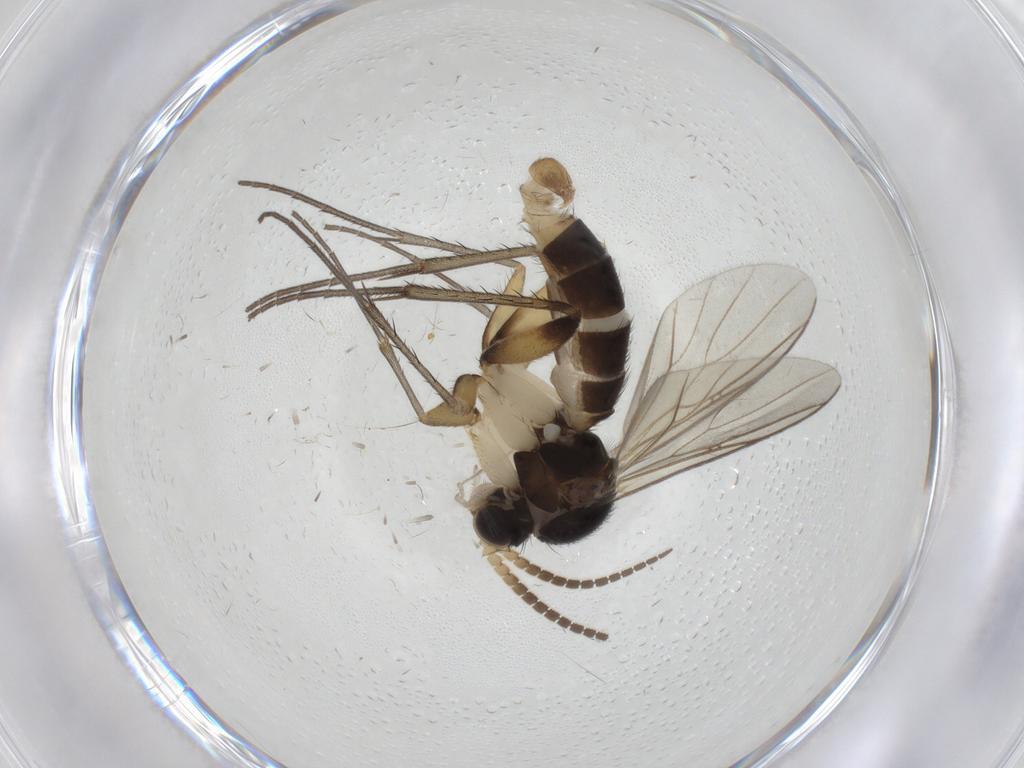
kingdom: Animalia
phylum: Arthropoda
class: Insecta
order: Diptera
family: Mycetophilidae
